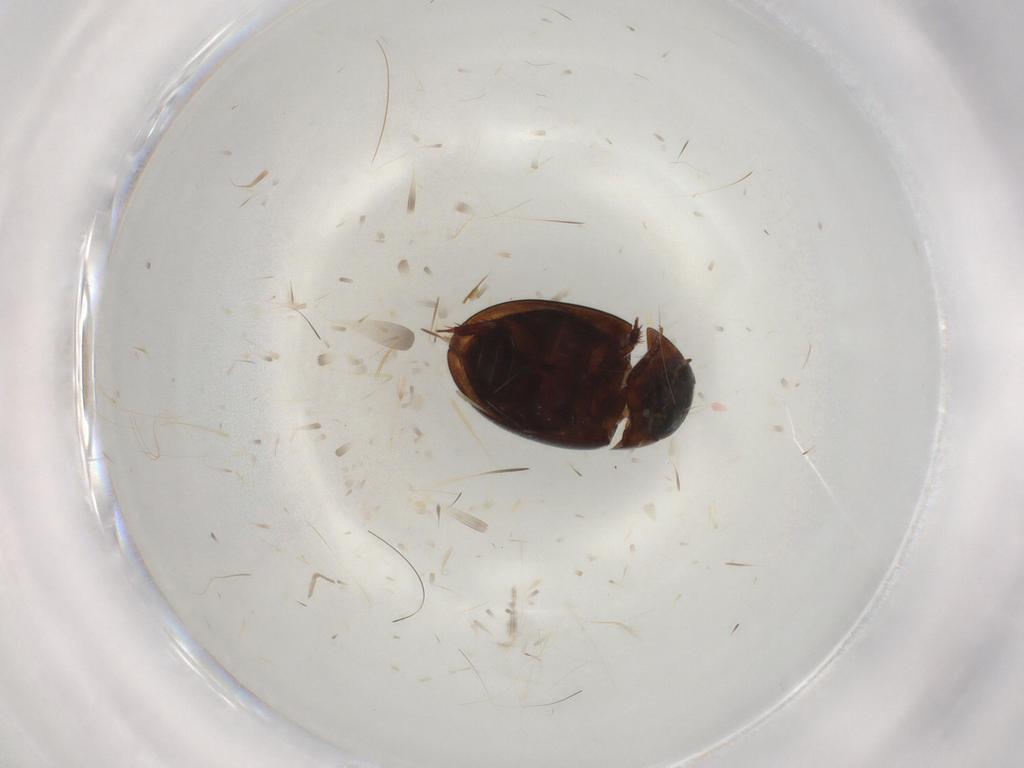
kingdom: Animalia
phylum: Arthropoda
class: Insecta
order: Coleoptera
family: Hydrophilidae
